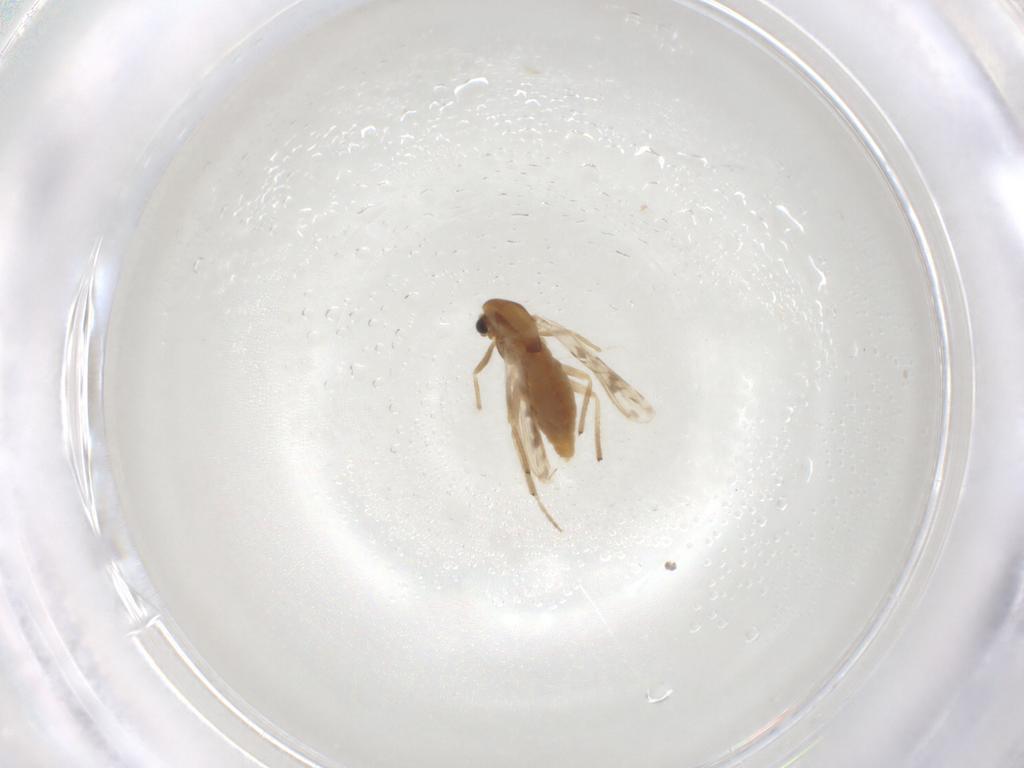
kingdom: Animalia
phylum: Arthropoda
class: Insecta
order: Diptera
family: Chironomidae
